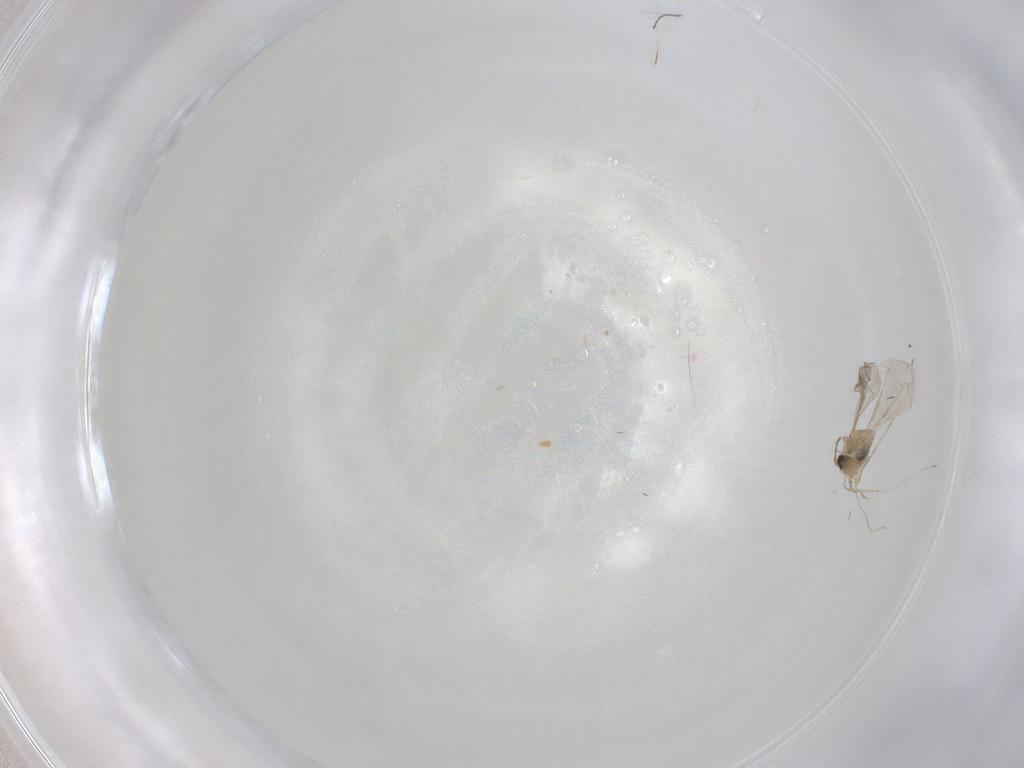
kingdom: Animalia
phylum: Arthropoda
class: Insecta
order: Diptera
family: Cecidomyiidae
